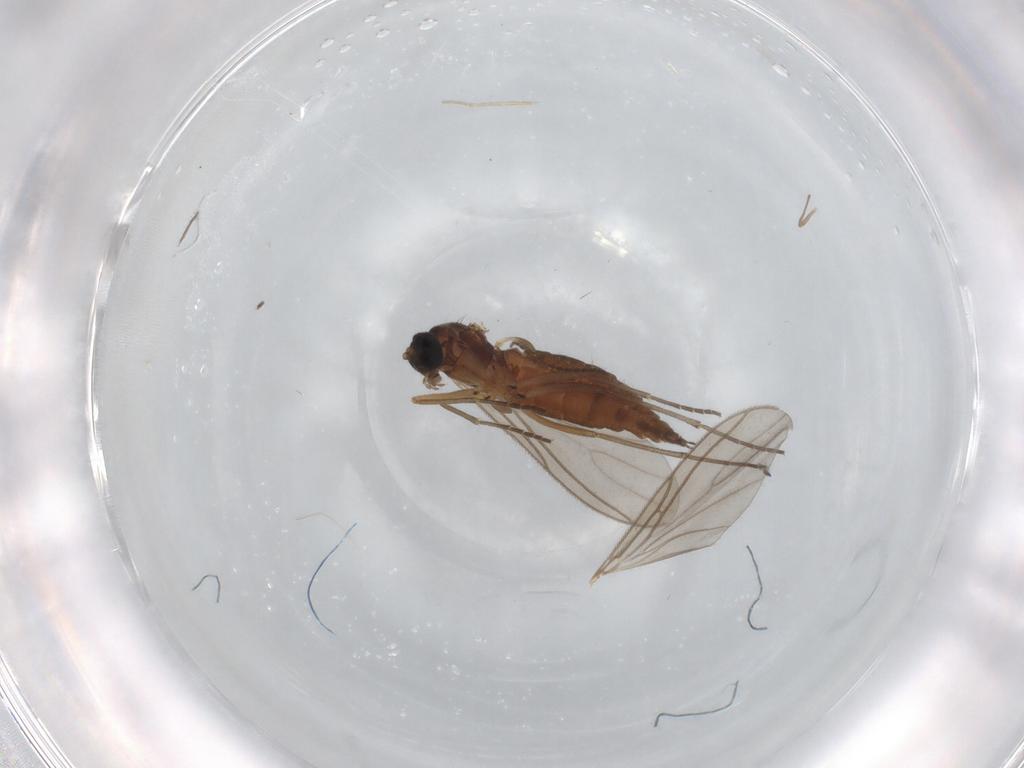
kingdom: Animalia
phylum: Arthropoda
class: Insecta
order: Diptera
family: Sciaridae
